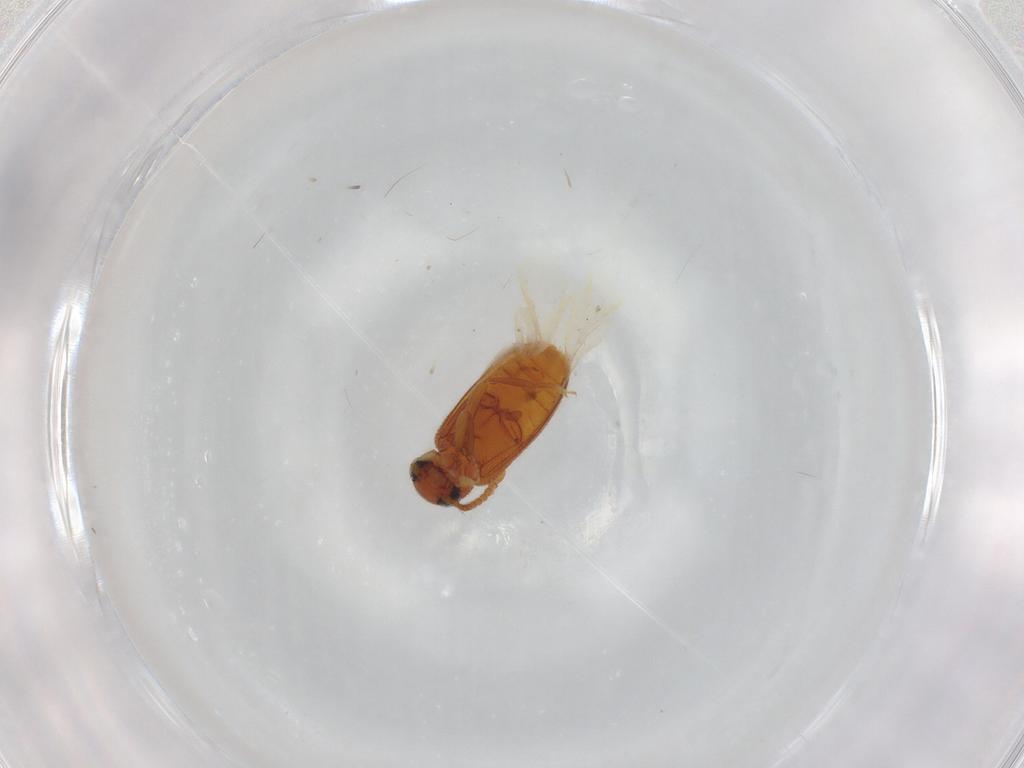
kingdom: Animalia
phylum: Arthropoda
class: Insecta
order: Coleoptera
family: Aderidae
